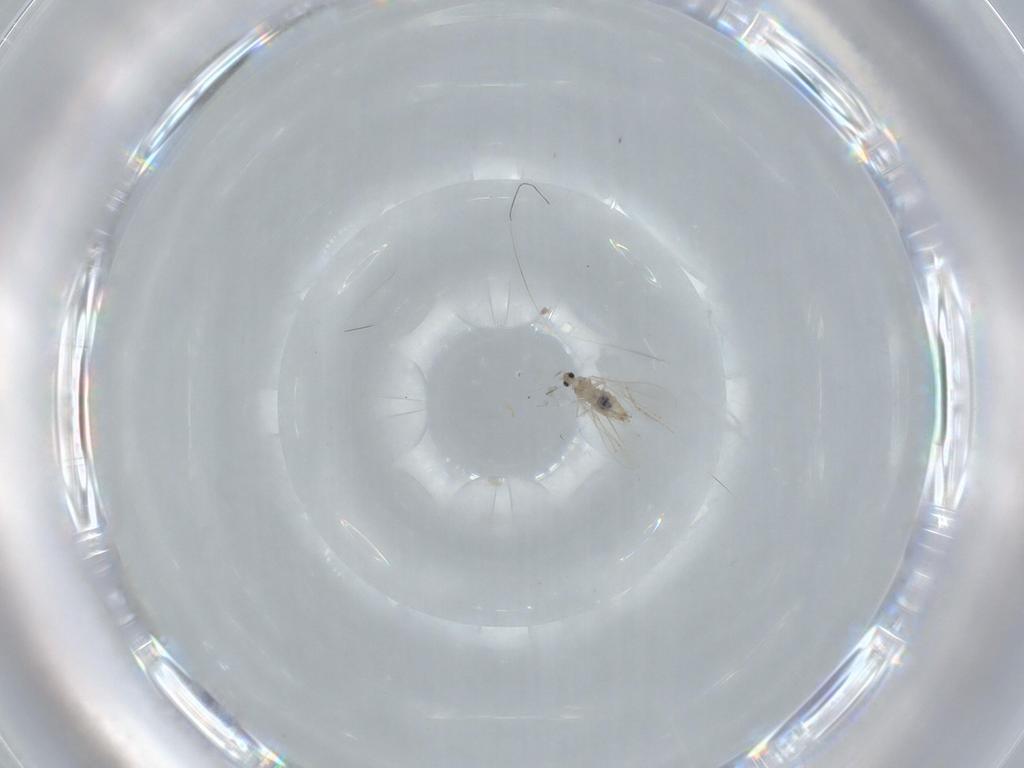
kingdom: Animalia
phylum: Arthropoda
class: Insecta
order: Diptera
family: Cecidomyiidae
